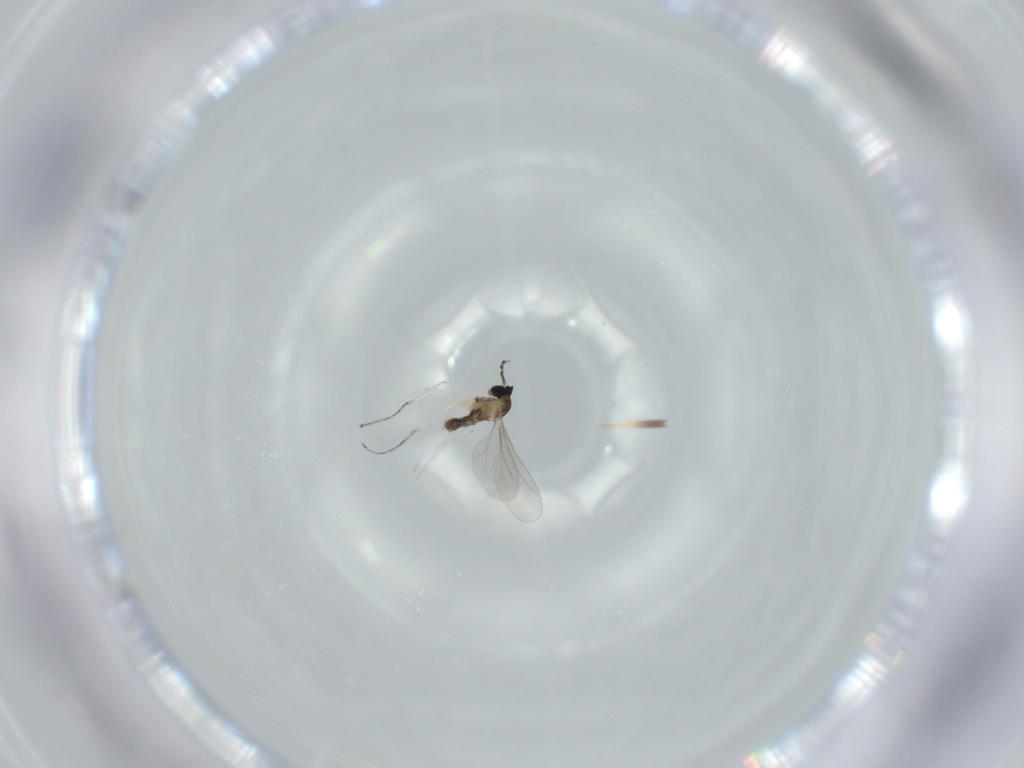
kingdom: Animalia
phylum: Arthropoda
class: Insecta
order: Diptera
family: Cecidomyiidae
